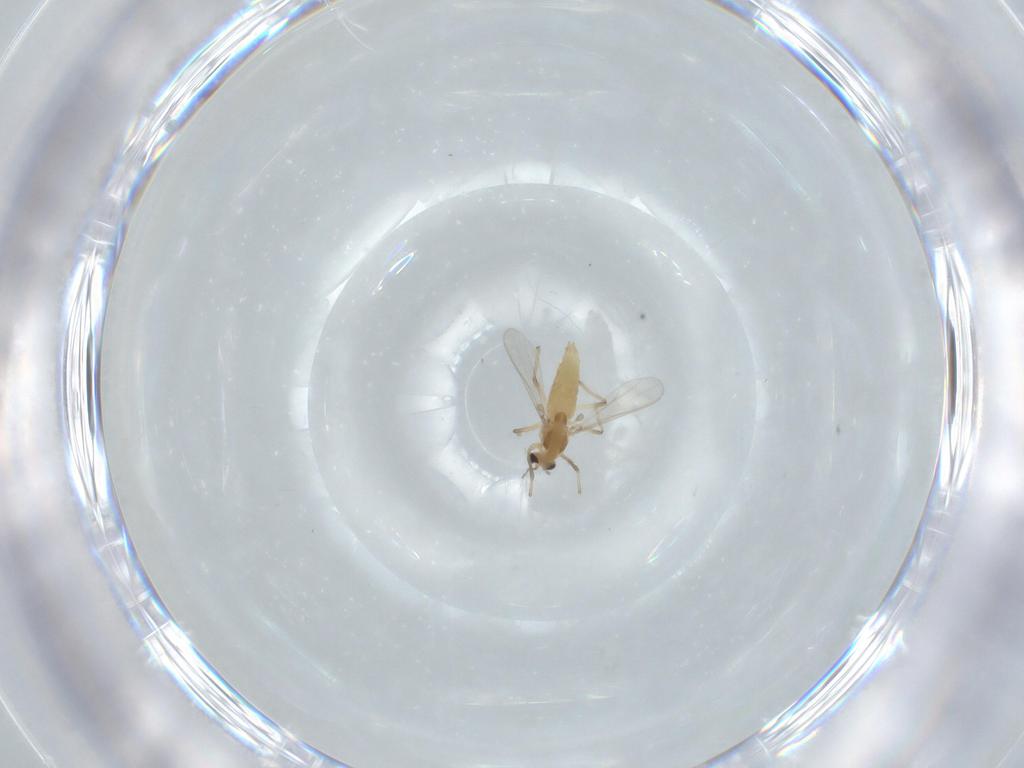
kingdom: Animalia
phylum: Arthropoda
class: Insecta
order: Diptera
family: Chironomidae
